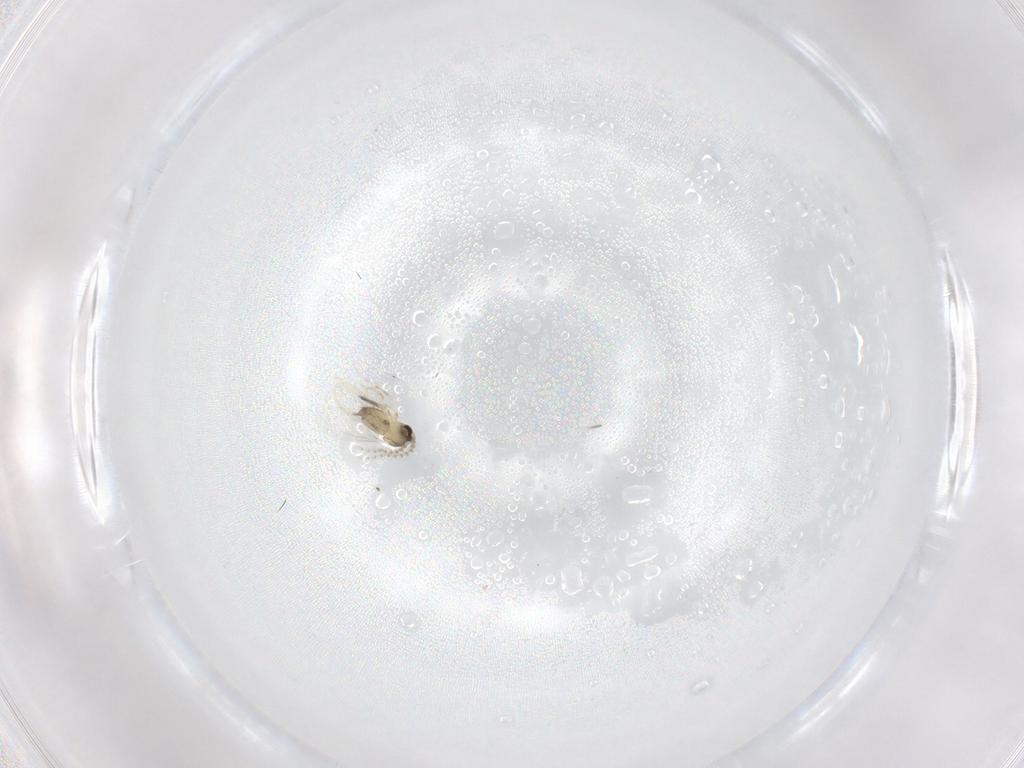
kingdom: Animalia
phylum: Arthropoda
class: Insecta
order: Diptera
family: Cecidomyiidae
